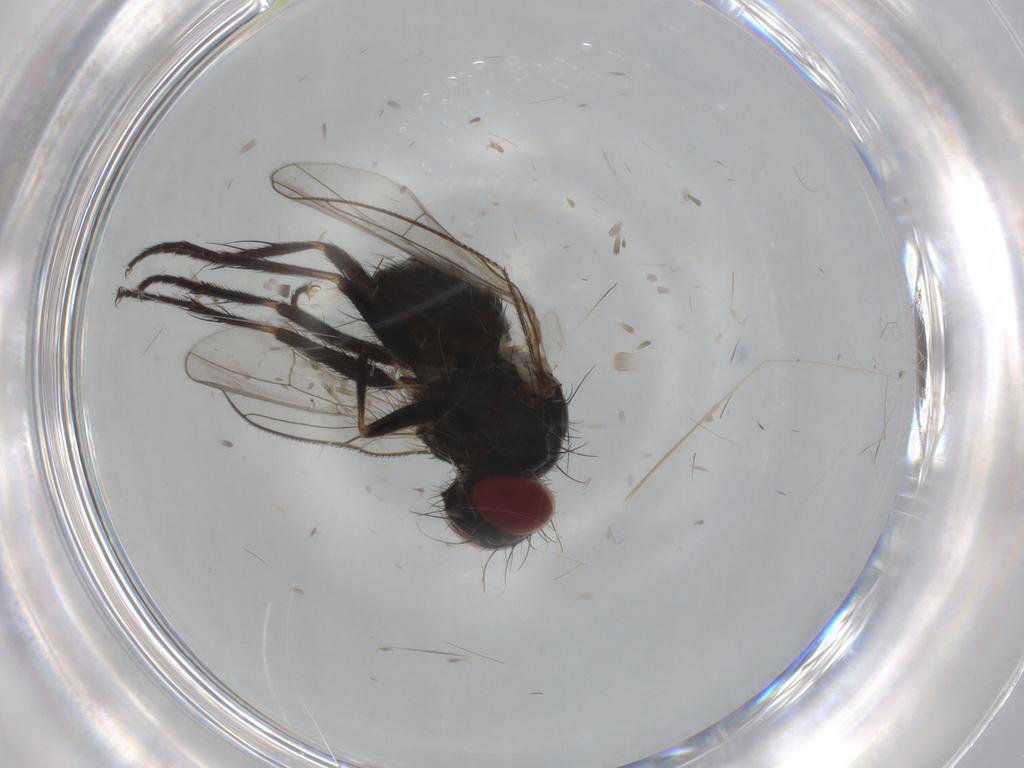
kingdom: Animalia
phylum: Arthropoda
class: Insecta
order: Diptera
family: Muscidae
